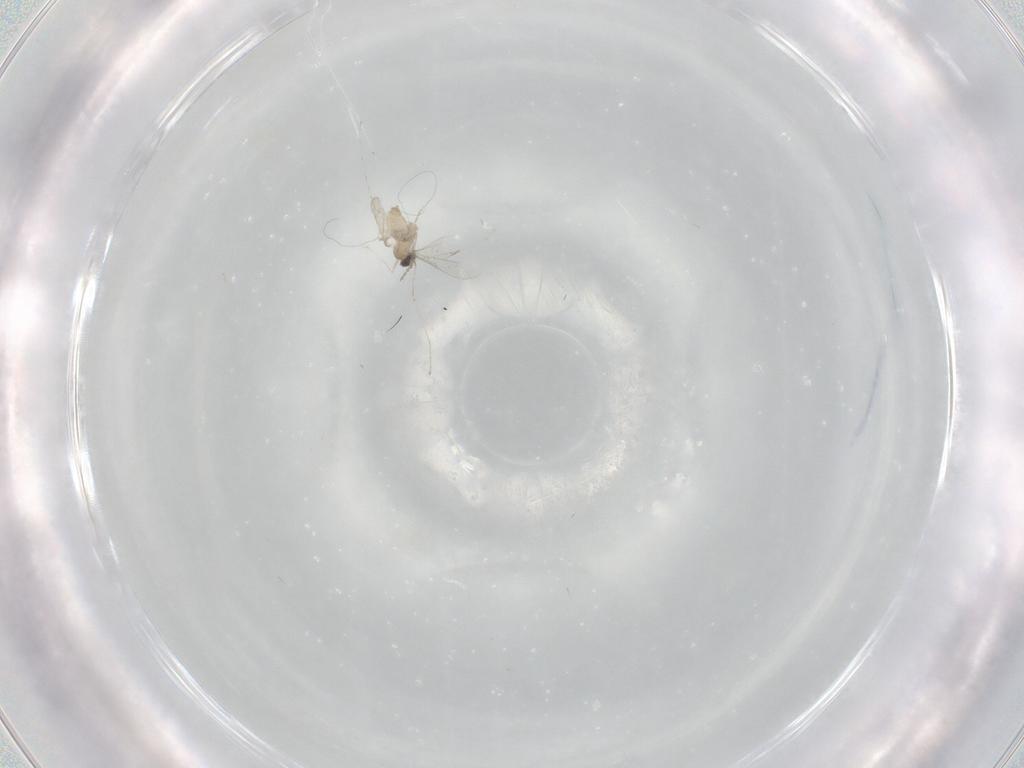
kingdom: Animalia
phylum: Arthropoda
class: Insecta
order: Diptera
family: Cecidomyiidae
